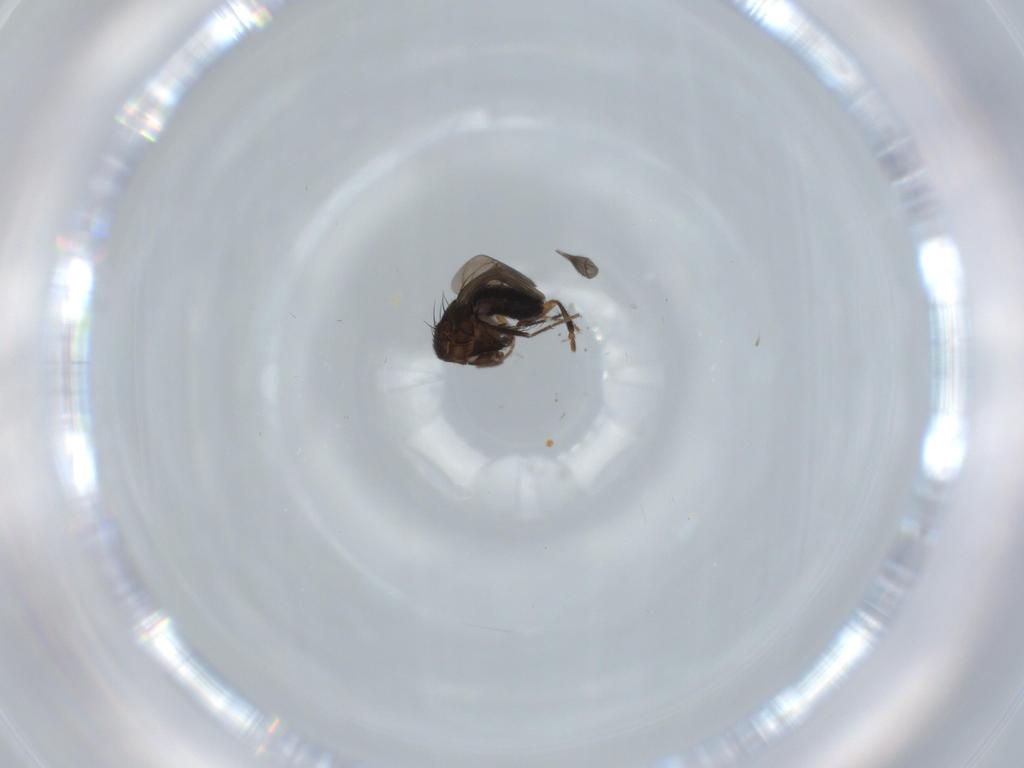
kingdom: Animalia
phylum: Arthropoda
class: Insecta
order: Diptera
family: Sphaeroceridae
